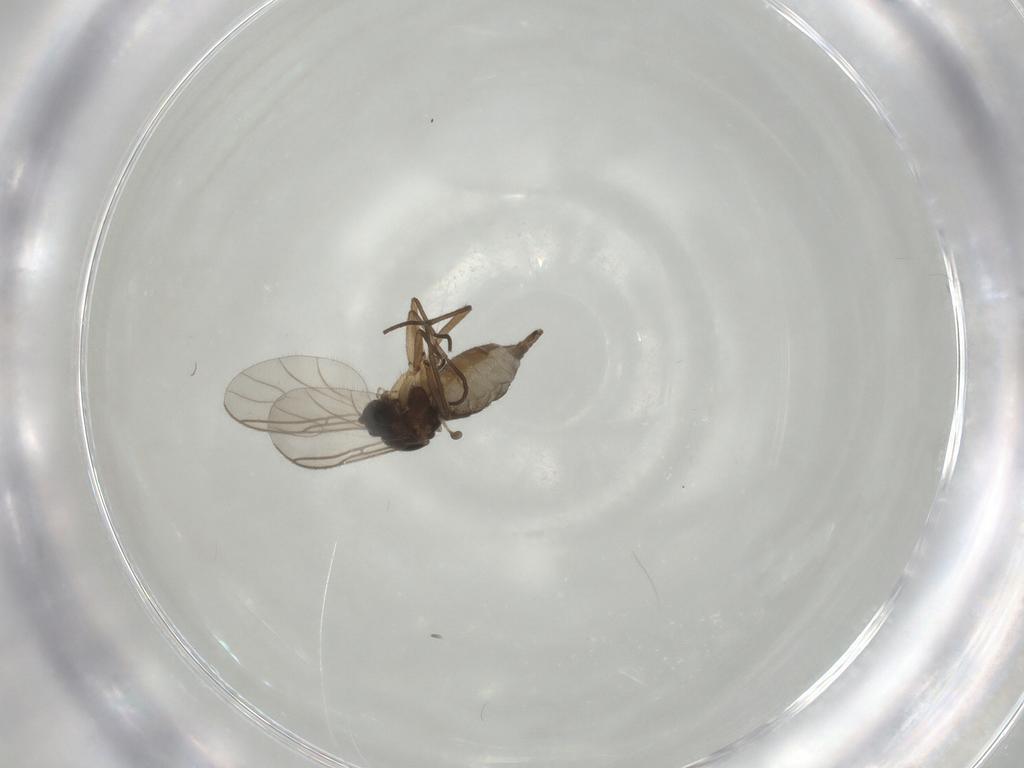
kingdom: Animalia
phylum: Arthropoda
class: Insecta
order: Diptera
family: Sciaridae
